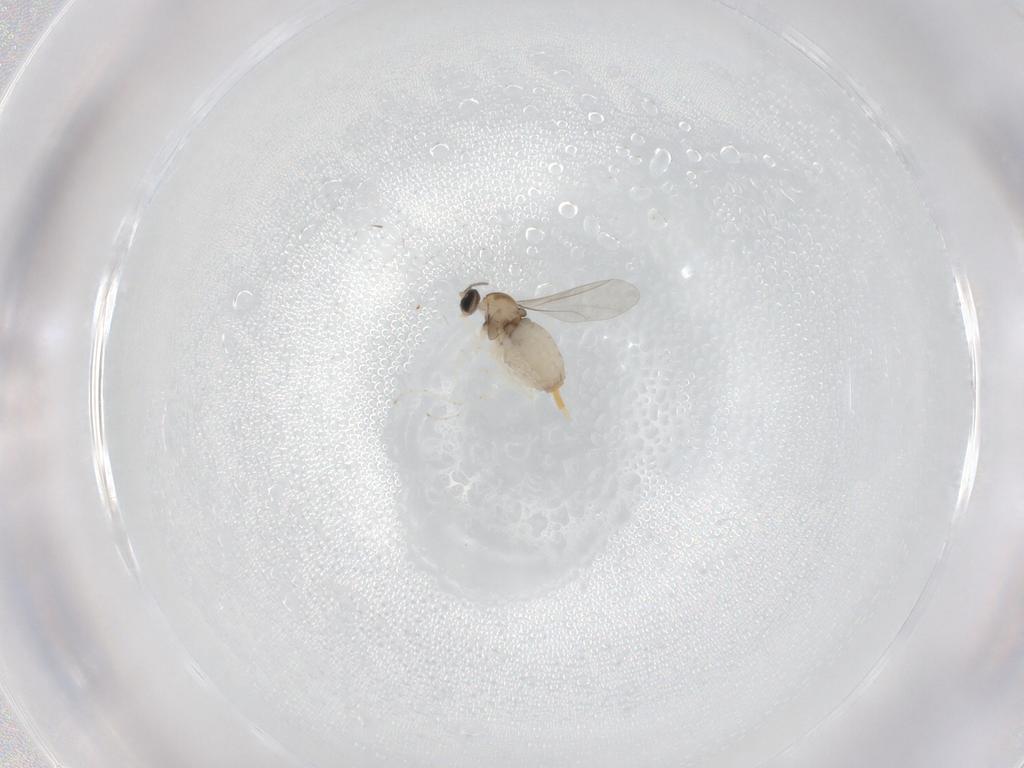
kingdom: Animalia
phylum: Arthropoda
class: Insecta
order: Diptera
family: Cecidomyiidae
